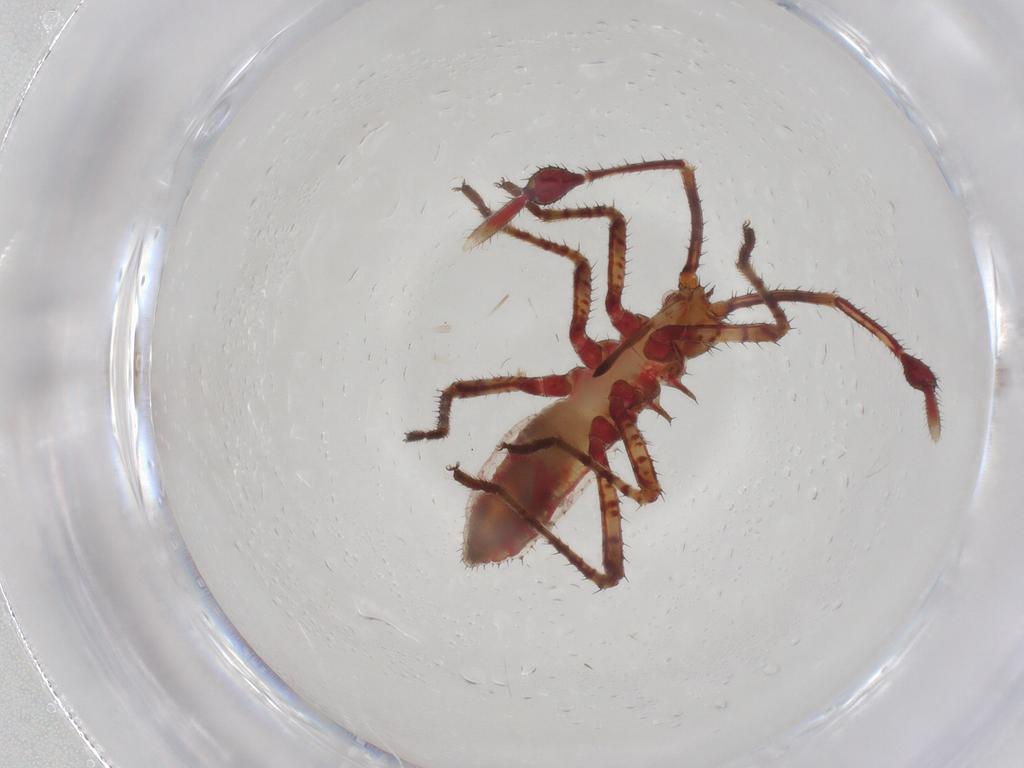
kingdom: Animalia
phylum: Arthropoda
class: Insecta
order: Hemiptera
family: Coreidae
